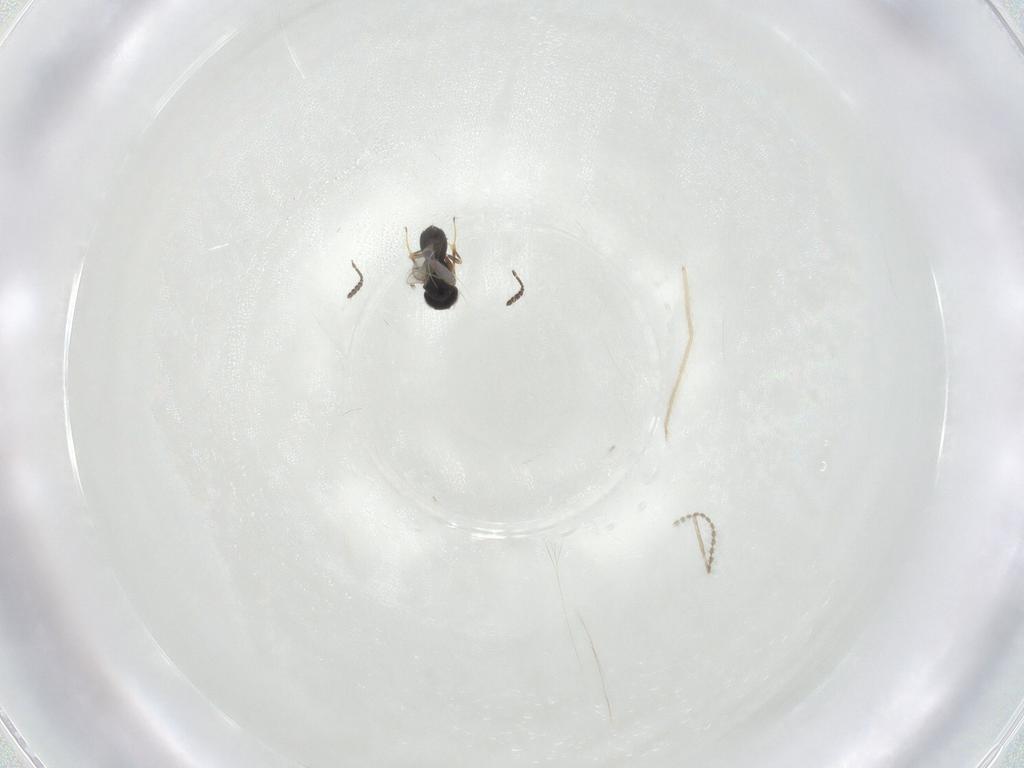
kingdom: Animalia
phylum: Arthropoda
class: Insecta
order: Hymenoptera
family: Scelionidae
